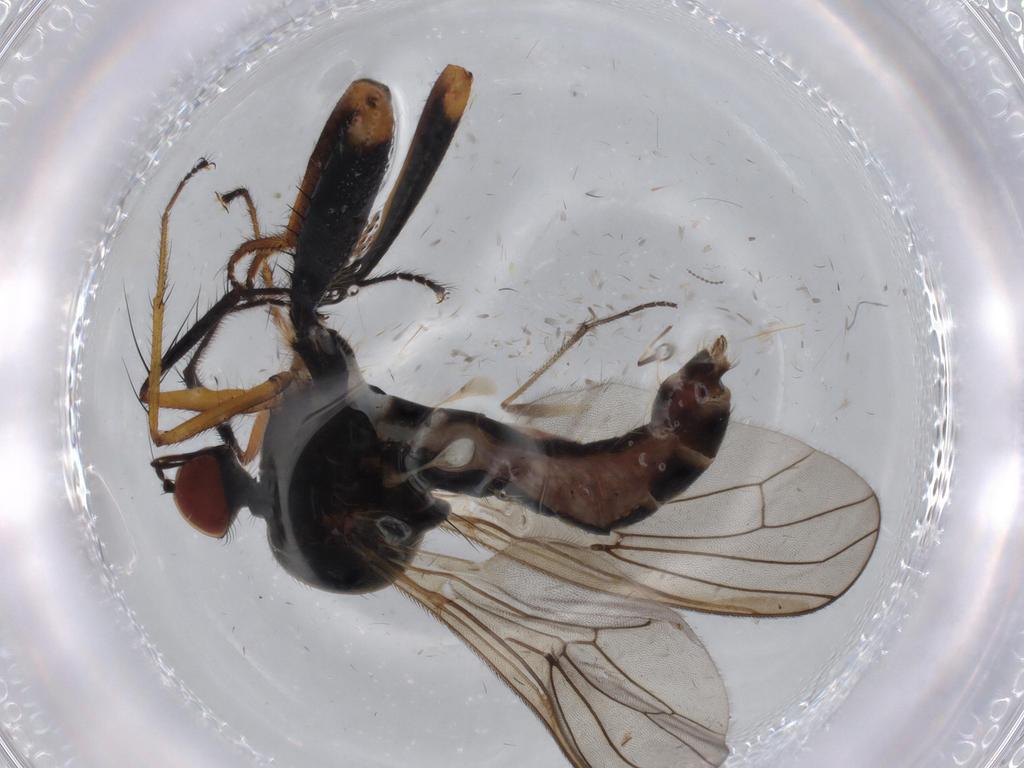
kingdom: Animalia
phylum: Arthropoda
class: Insecta
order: Diptera
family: Hybotidae
